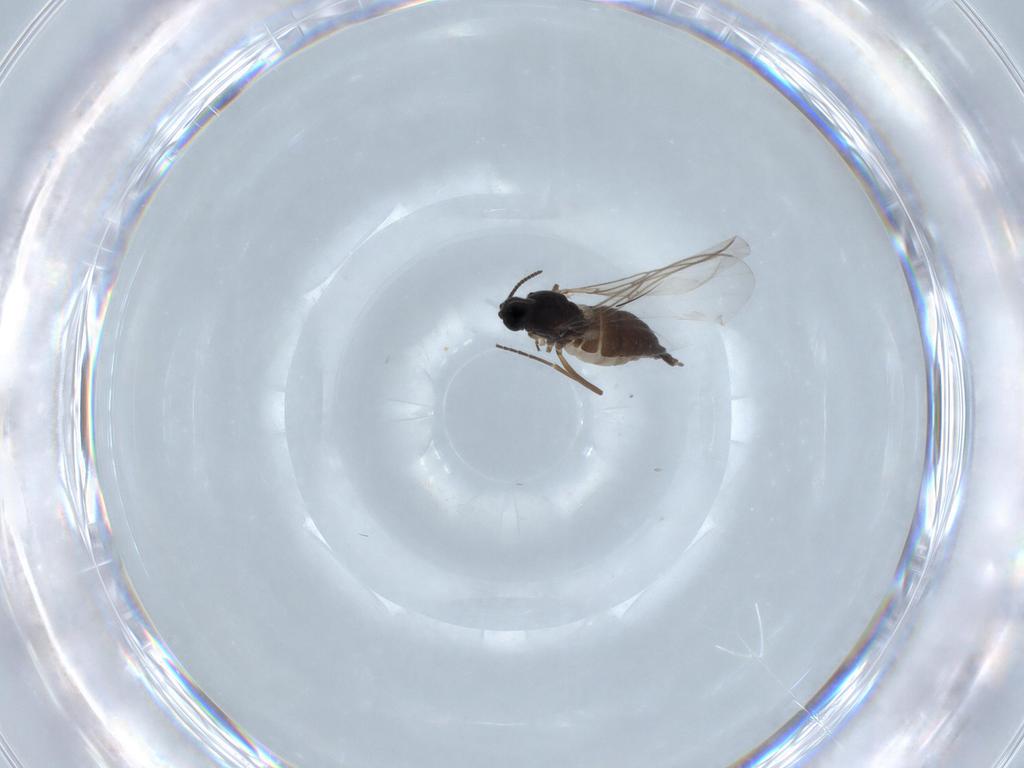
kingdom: Animalia
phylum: Arthropoda
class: Insecta
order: Diptera
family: Sciaridae
